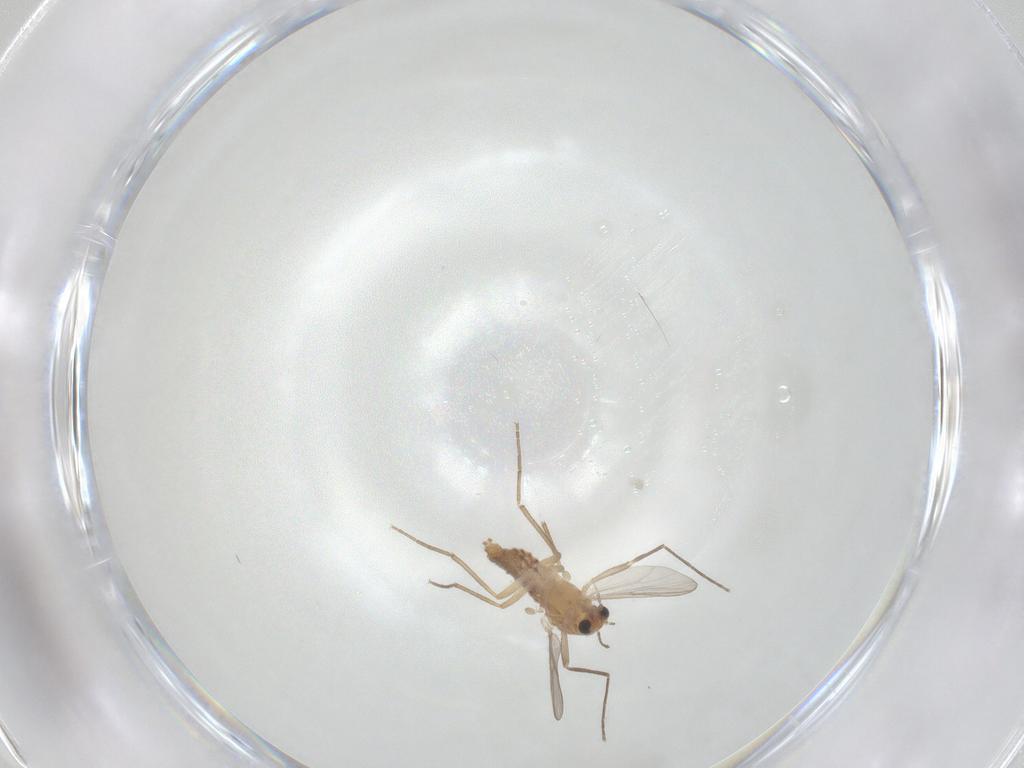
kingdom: Animalia
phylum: Arthropoda
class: Insecta
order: Diptera
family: Chironomidae
